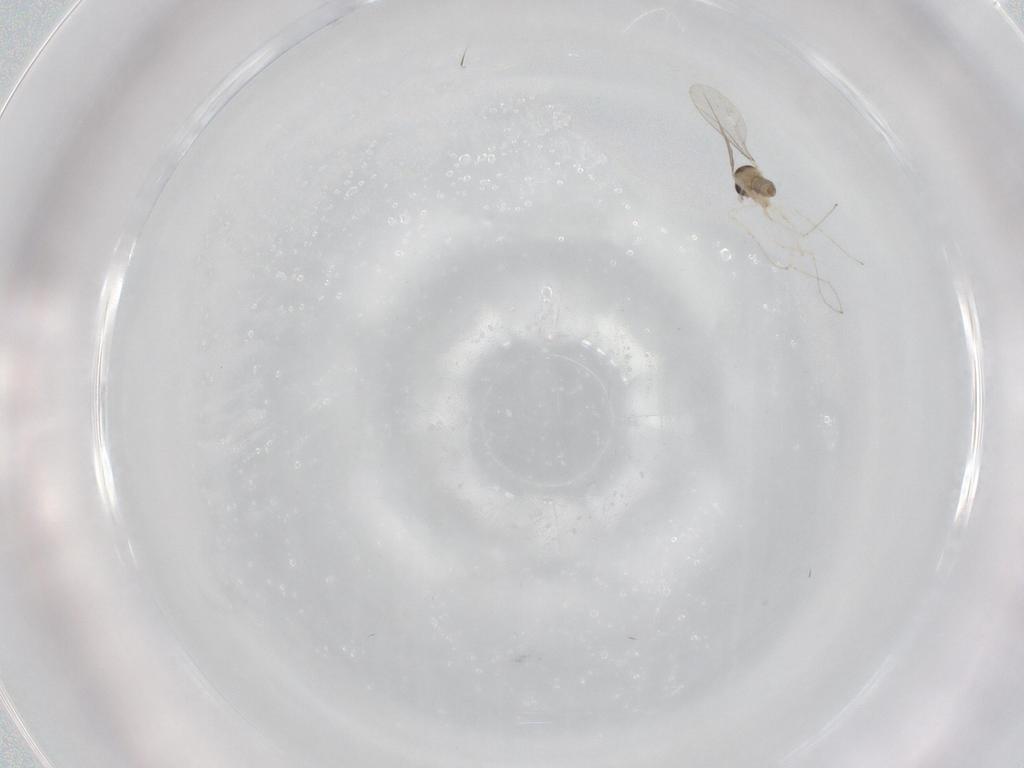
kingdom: Animalia
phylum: Arthropoda
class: Insecta
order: Diptera
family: Cecidomyiidae
